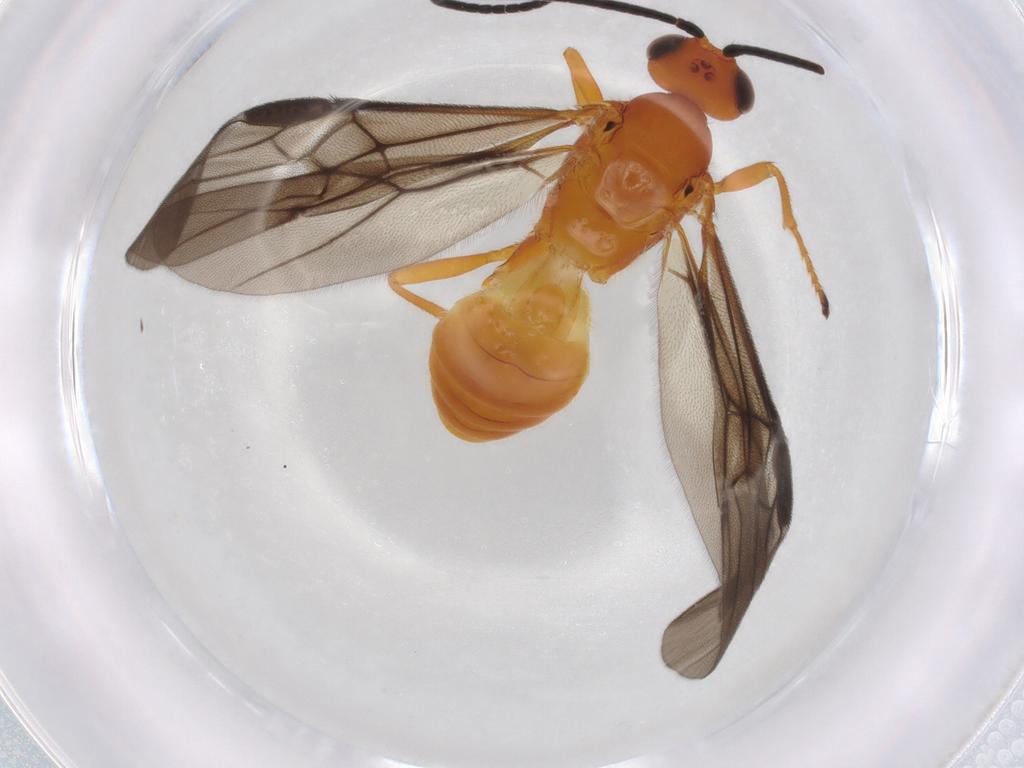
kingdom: Animalia
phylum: Arthropoda
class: Insecta
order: Hymenoptera
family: Braconidae
